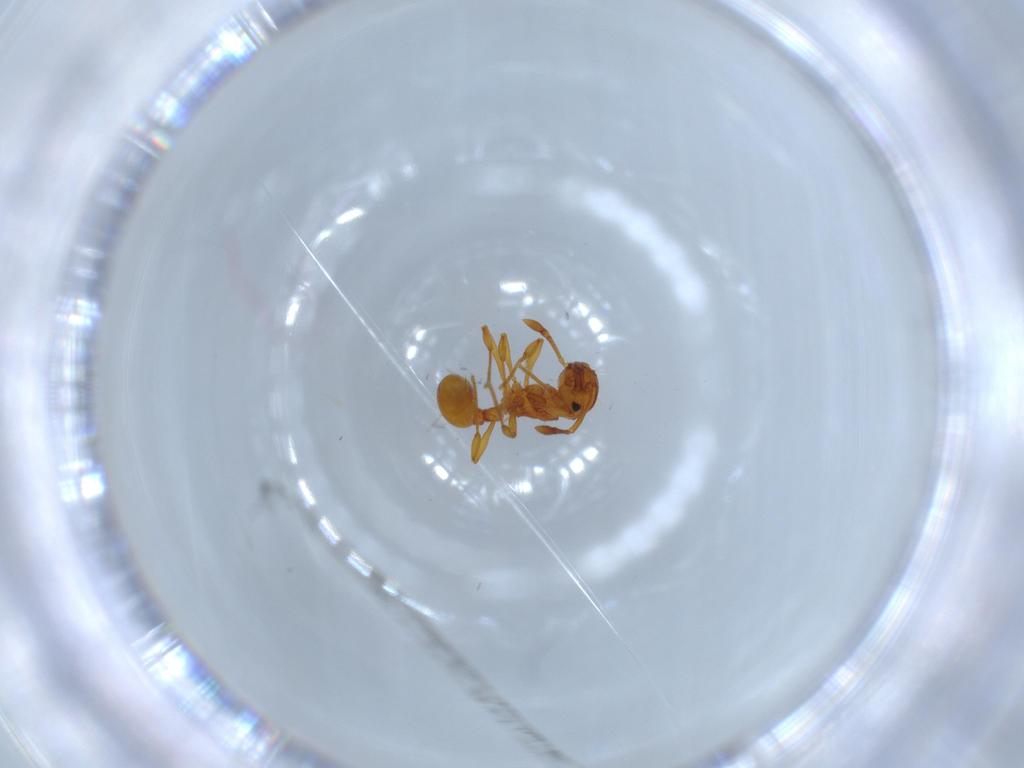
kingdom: Animalia
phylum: Arthropoda
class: Insecta
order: Hymenoptera
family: Formicidae
